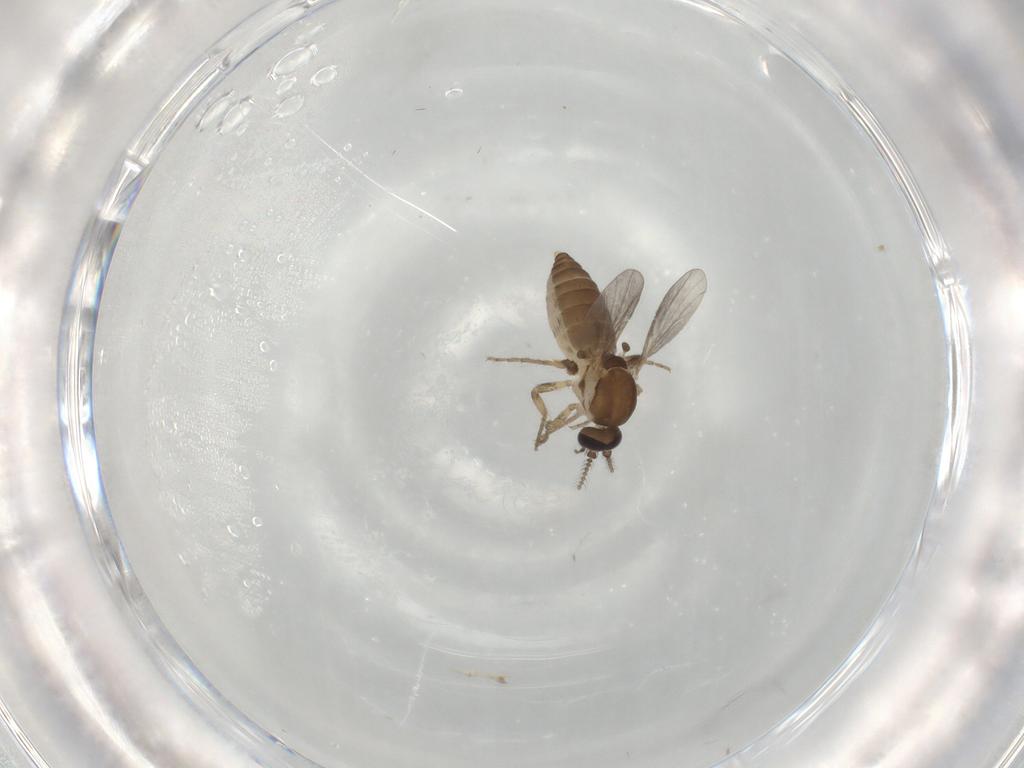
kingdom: Animalia
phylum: Arthropoda
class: Insecta
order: Diptera
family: Ceratopogonidae
